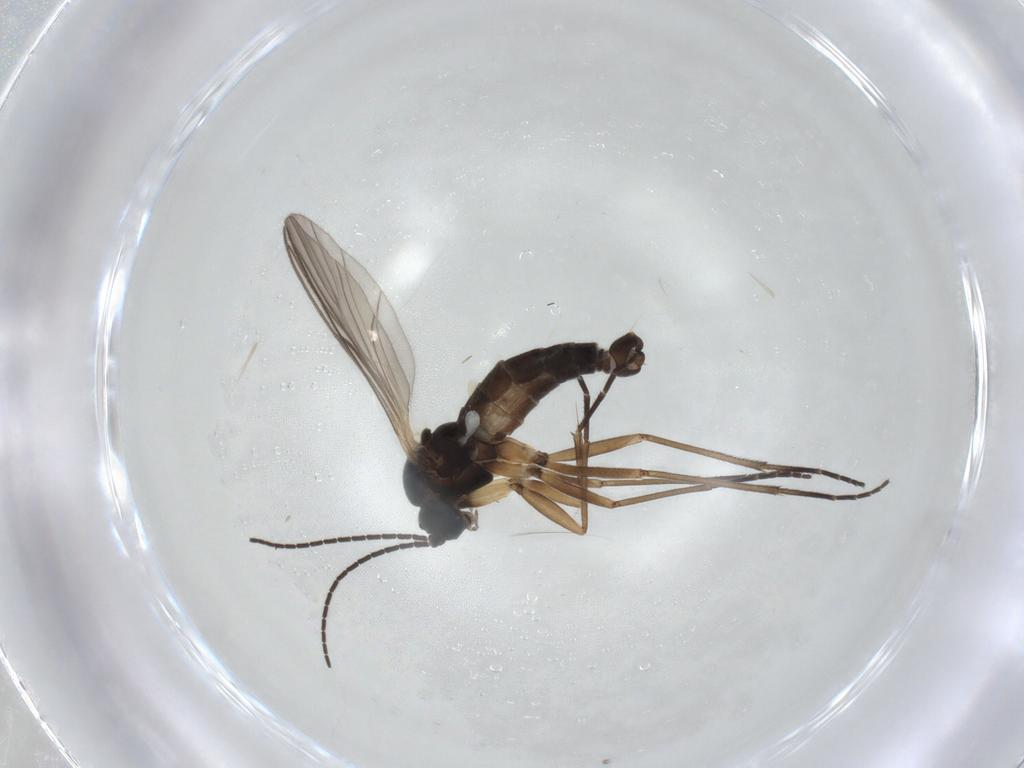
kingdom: Animalia
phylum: Arthropoda
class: Insecta
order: Diptera
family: Sciaridae
